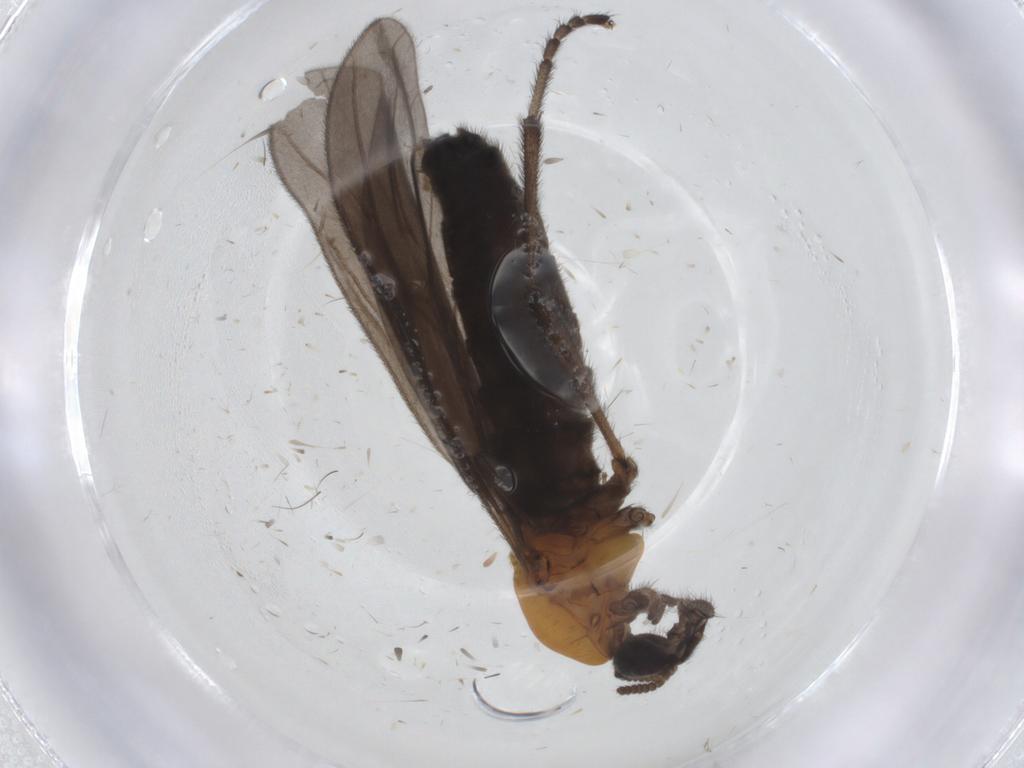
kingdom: Animalia
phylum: Arthropoda
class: Insecta
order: Diptera
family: Bibionidae
